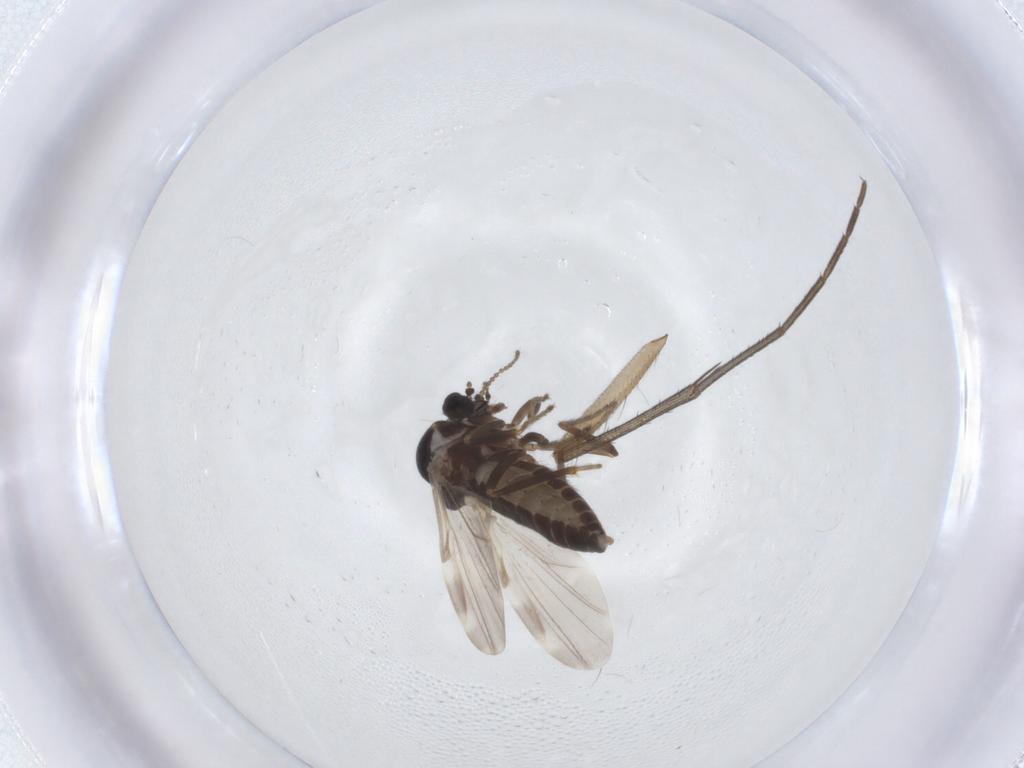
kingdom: Animalia
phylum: Arthropoda
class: Insecta
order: Diptera
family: Ceratopogonidae
